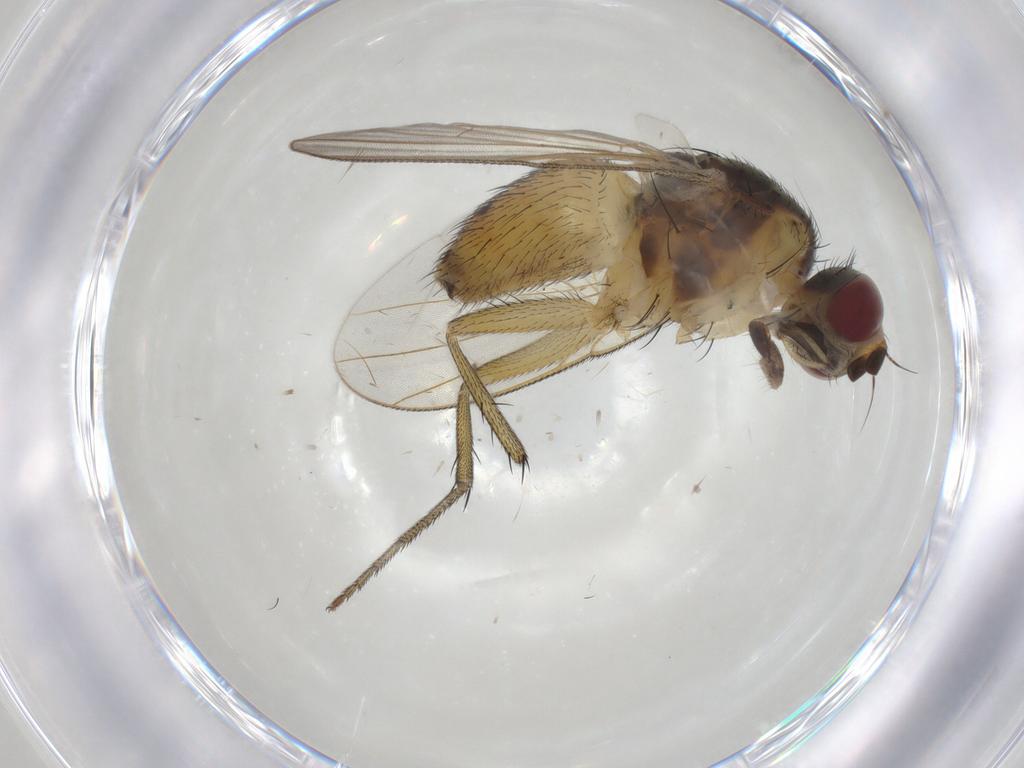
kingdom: Animalia
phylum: Arthropoda
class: Insecta
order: Diptera
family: Muscidae
